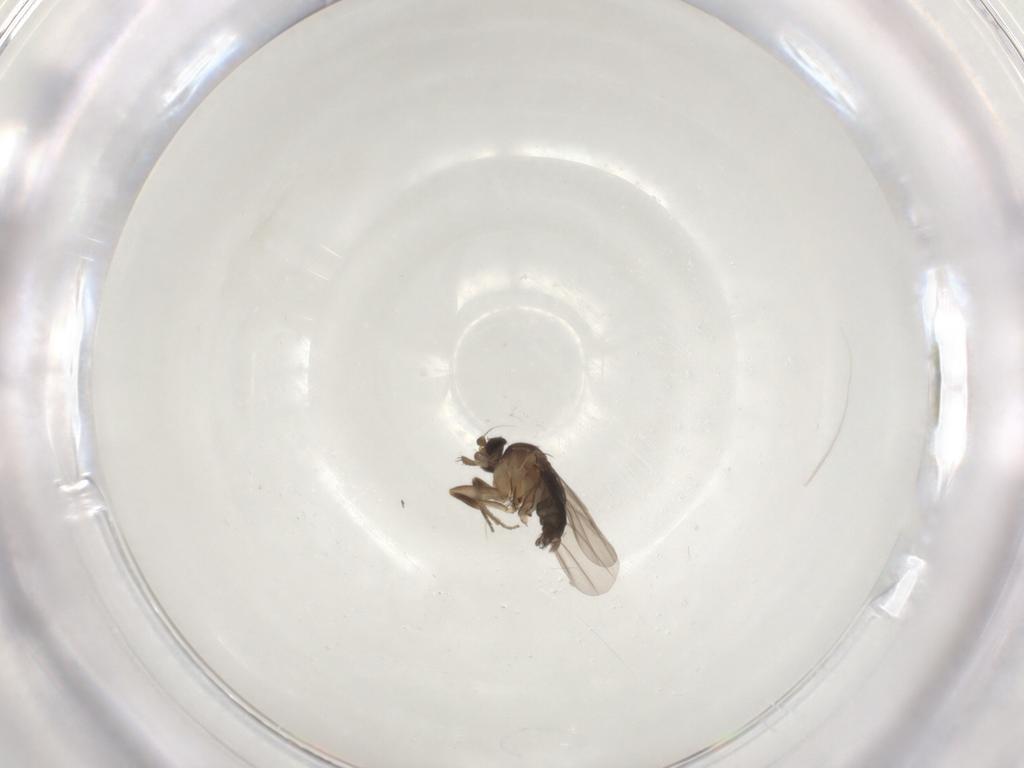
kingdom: Animalia
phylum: Arthropoda
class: Insecta
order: Diptera
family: Phoridae
